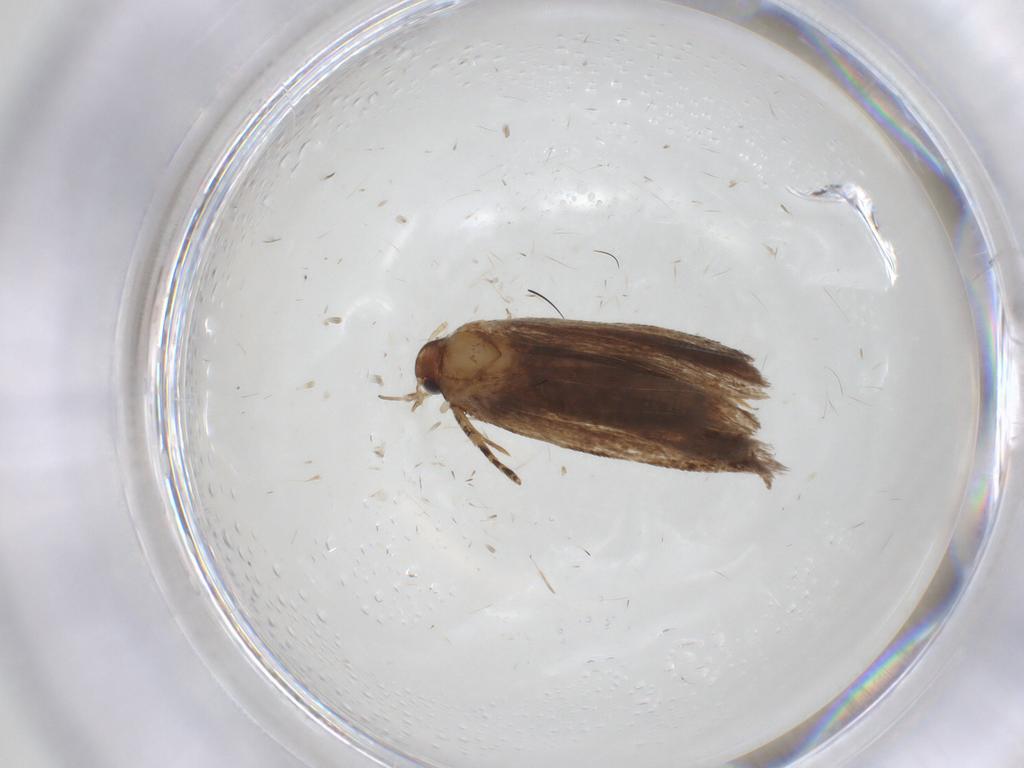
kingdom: Animalia
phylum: Arthropoda
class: Insecta
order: Lepidoptera
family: Gelechiidae
